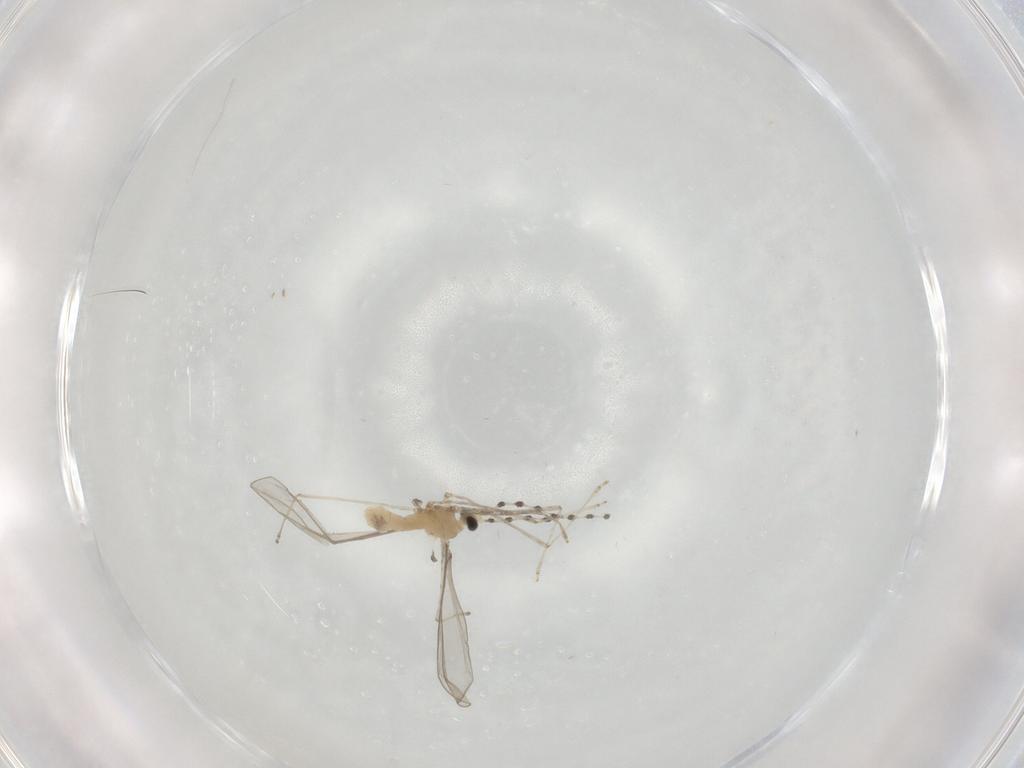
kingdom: Animalia
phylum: Arthropoda
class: Insecta
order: Diptera
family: Cecidomyiidae
